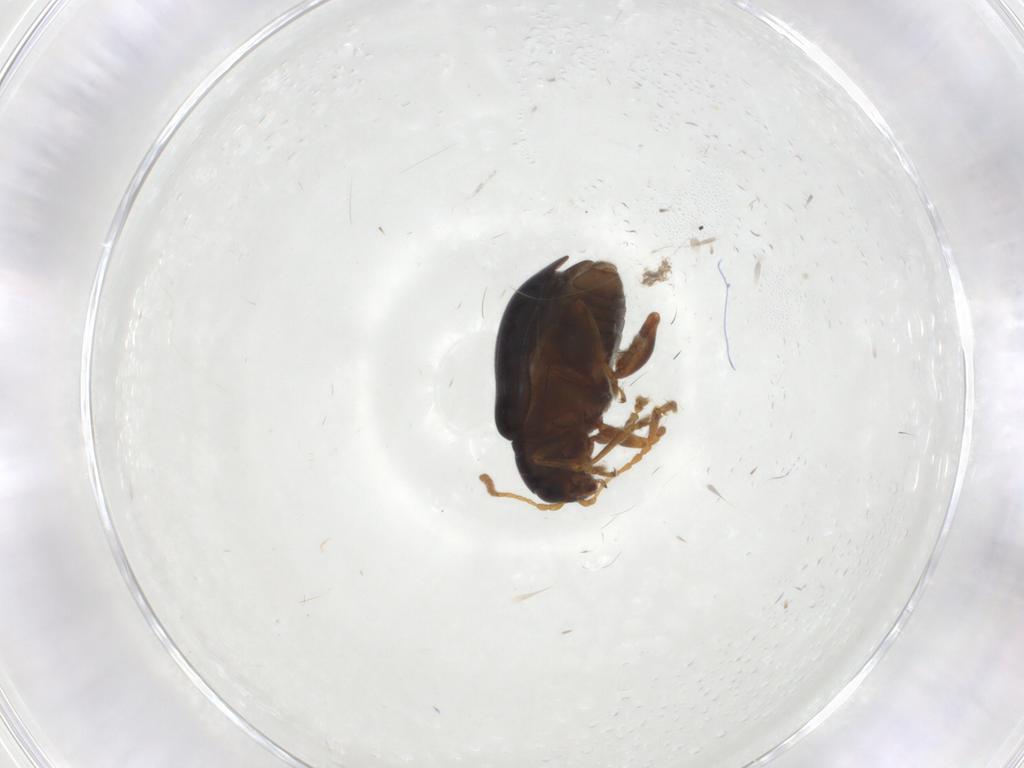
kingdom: Animalia
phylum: Arthropoda
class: Insecta
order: Coleoptera
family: Chrysomelidae
